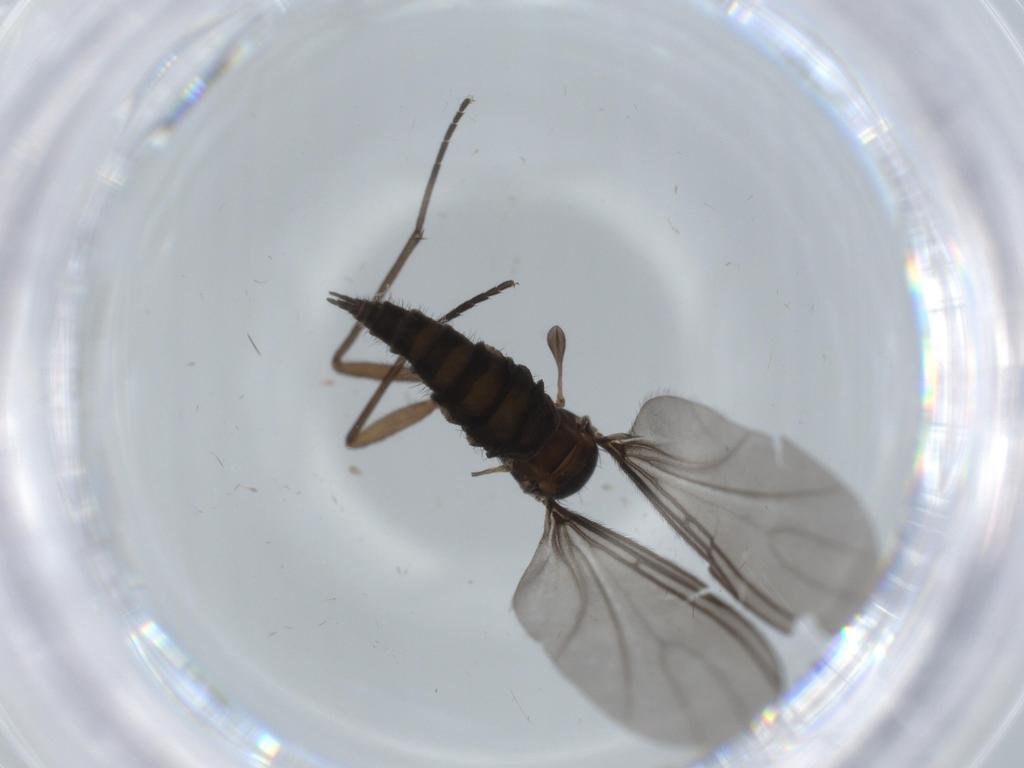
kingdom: Animalia
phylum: Arthropoda
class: Insecta
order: Diptera
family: Sciaridae
